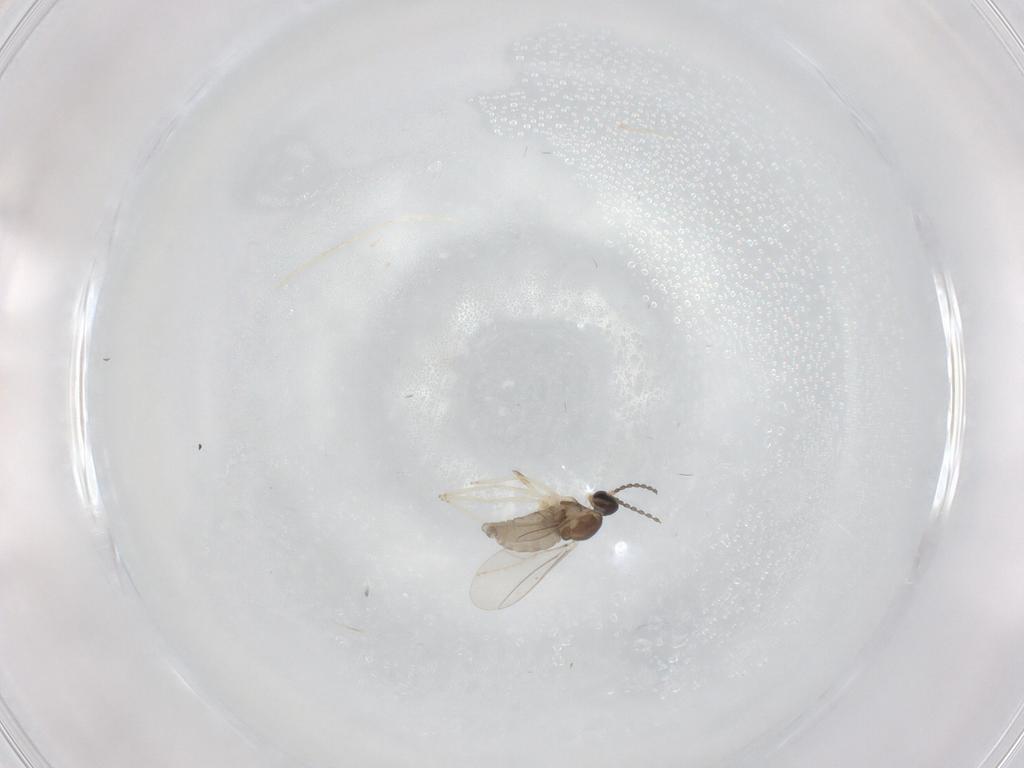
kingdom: Animalia
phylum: Arthropoda
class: Insecta
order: Diptera
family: Cecidomyiidae
